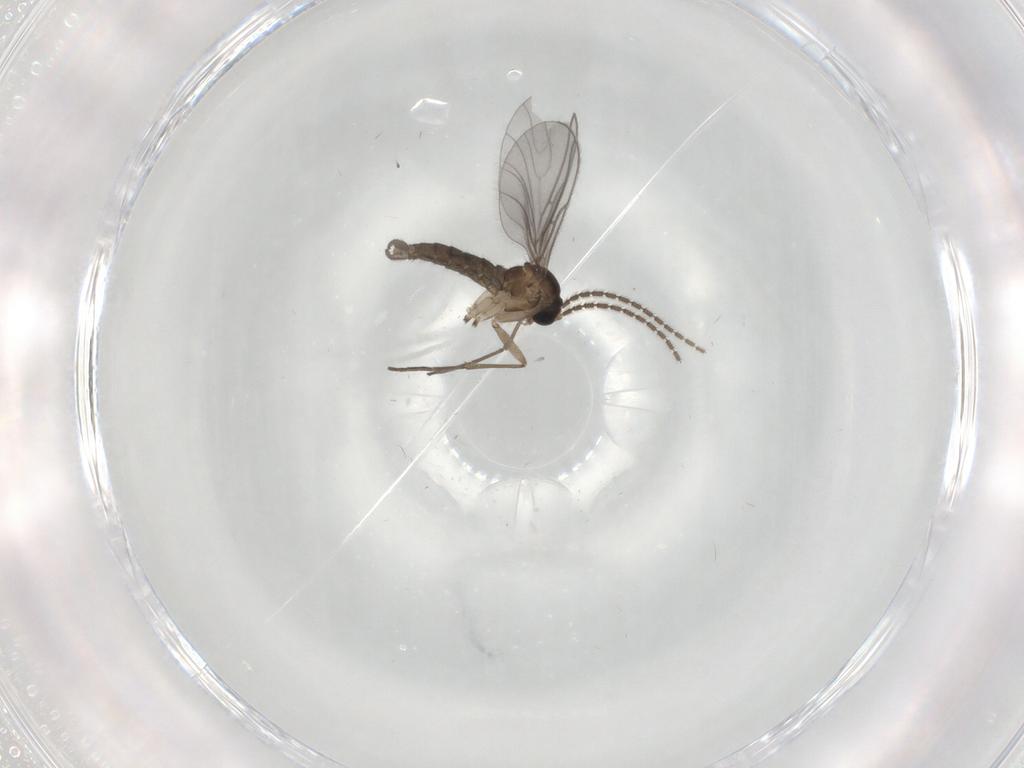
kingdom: Animalia
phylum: Arthropoda
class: Insecta
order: Diptera
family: Sciaridae
